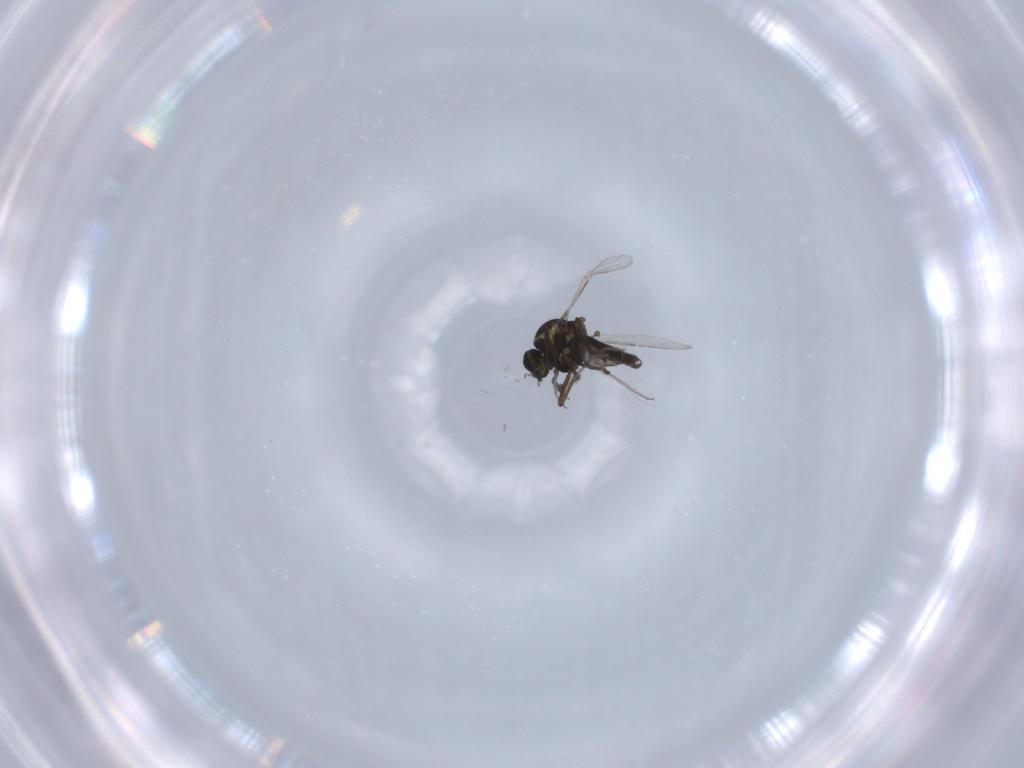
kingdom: Animalia
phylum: Arthropoda
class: Insecta
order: Diptera
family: Ceratopogonidae
